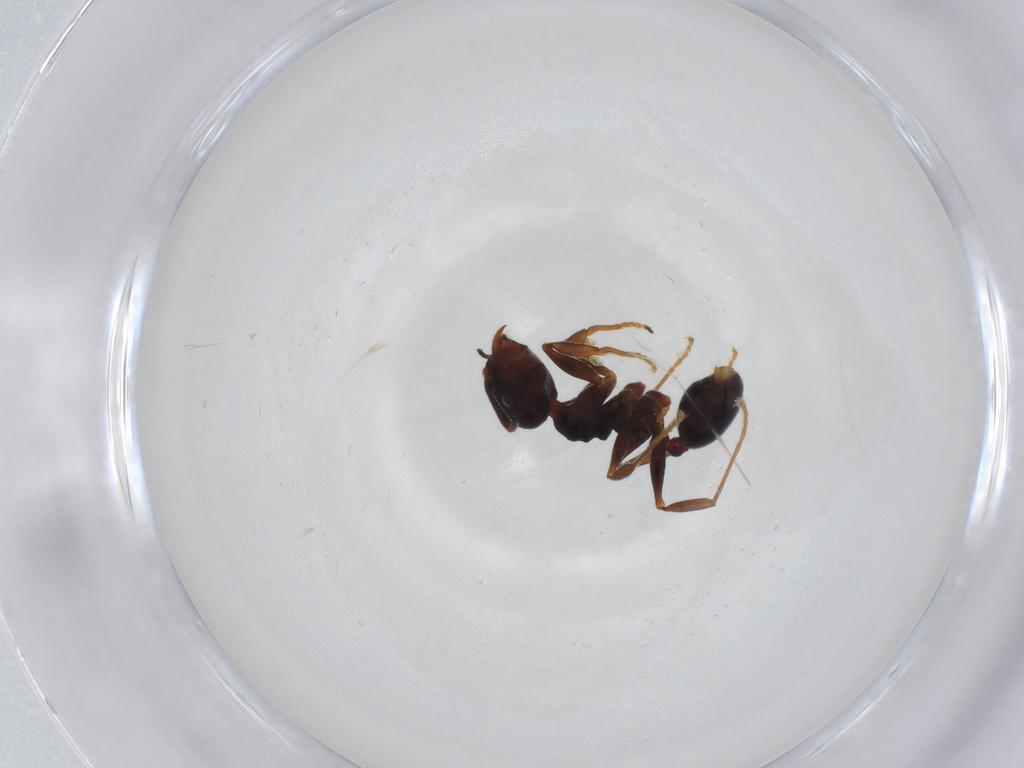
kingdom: Animalia
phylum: Arthropoda
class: Insecta
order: Hymenoptera
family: Formicidae
